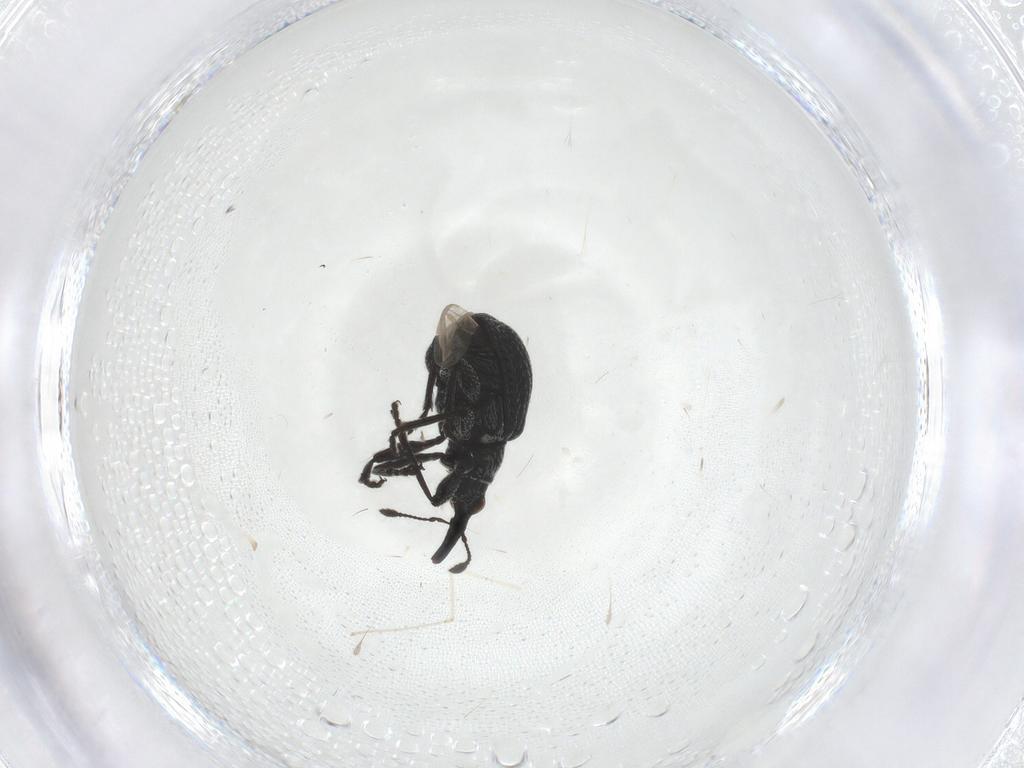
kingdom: Animalia
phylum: Arthropoda
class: Insecta
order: Coleoptera
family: Brentidae
